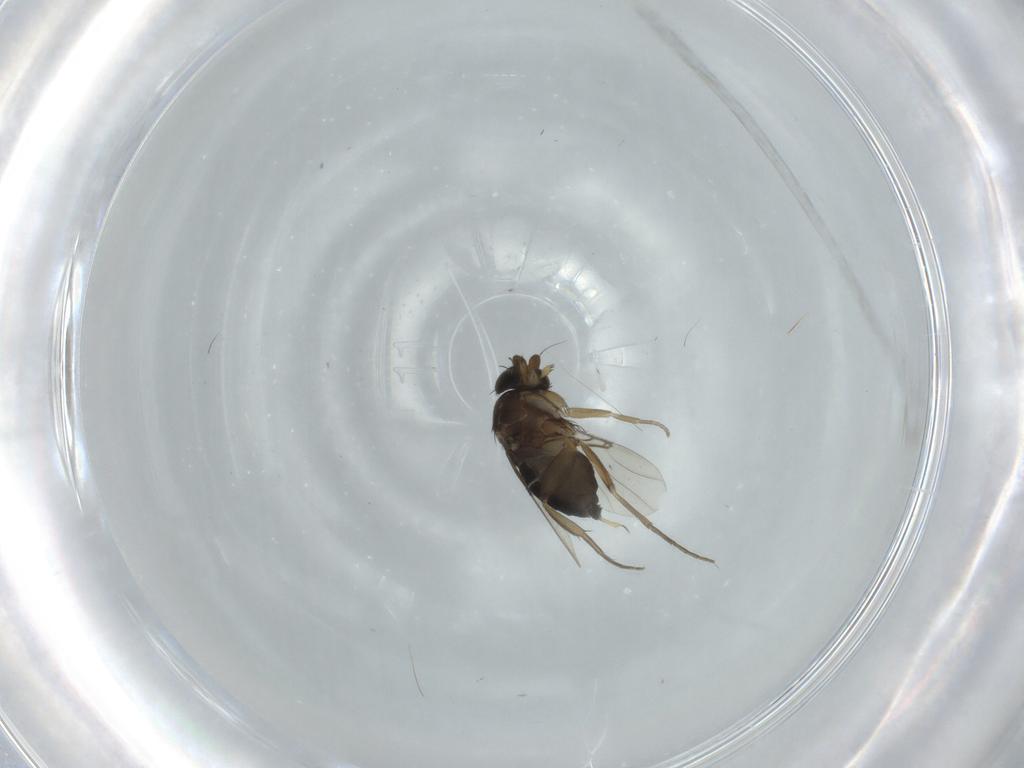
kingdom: Animalia
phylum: Arthropoda
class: Insecta
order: Diptera
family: Phoridae
